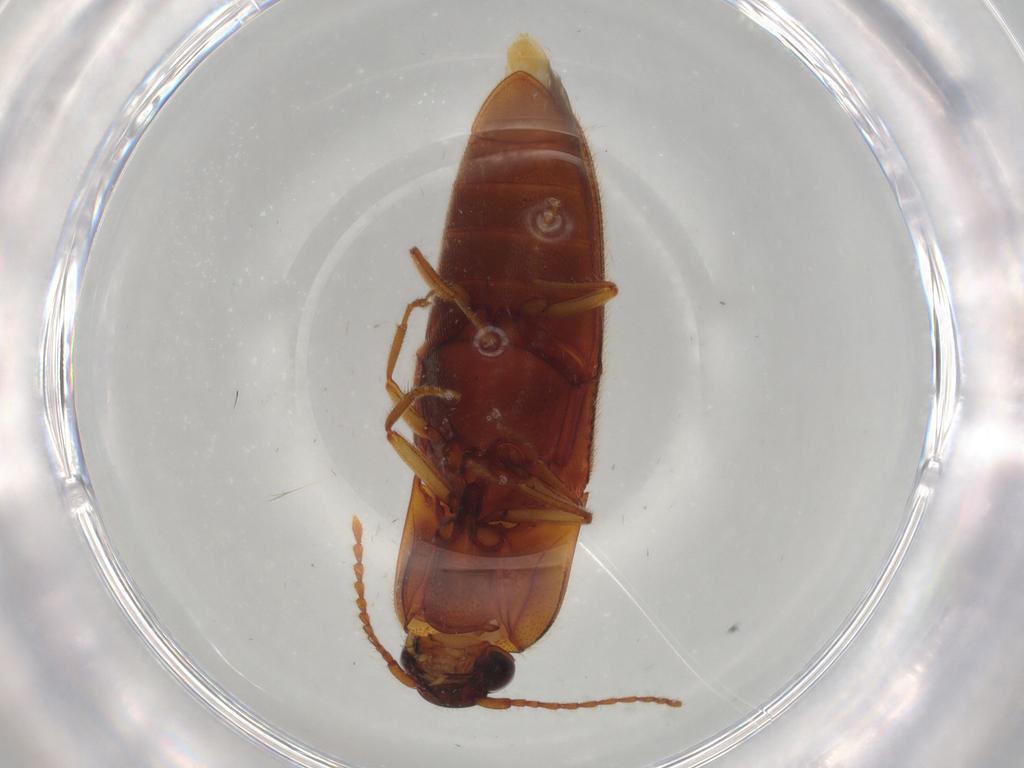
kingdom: Animalia
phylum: Arthropoda
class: Insecta
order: Coleoptera
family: Elateridae
